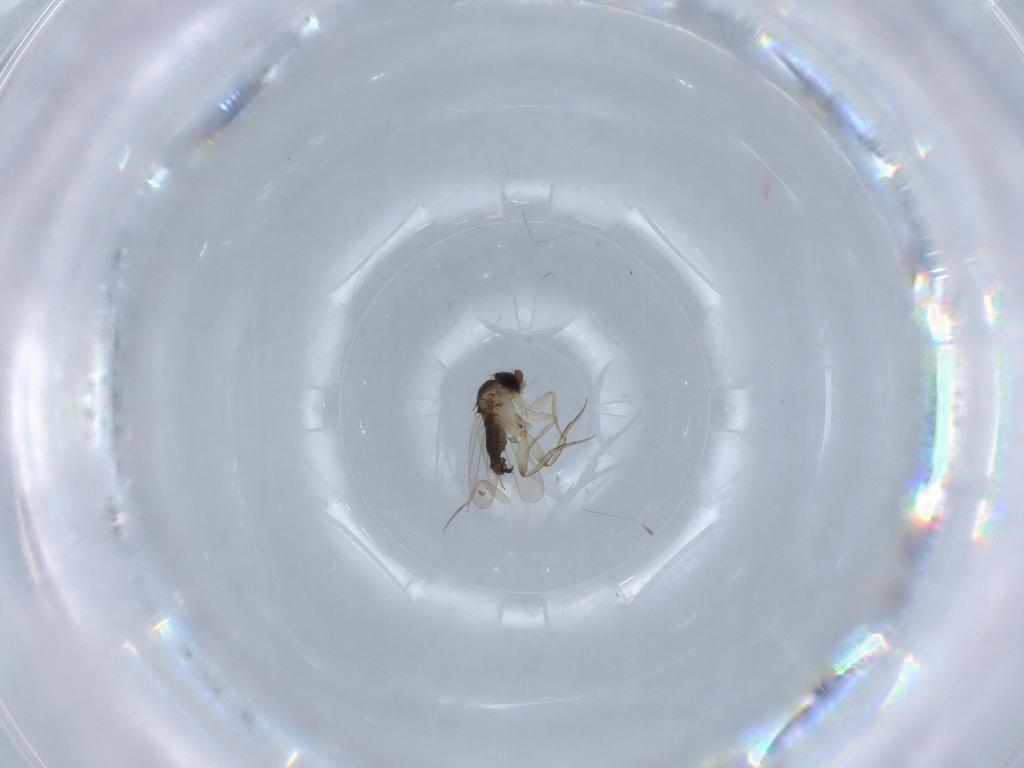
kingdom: Animalia
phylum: Arthropoda
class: Insecta
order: Diptera
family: Phoridae
